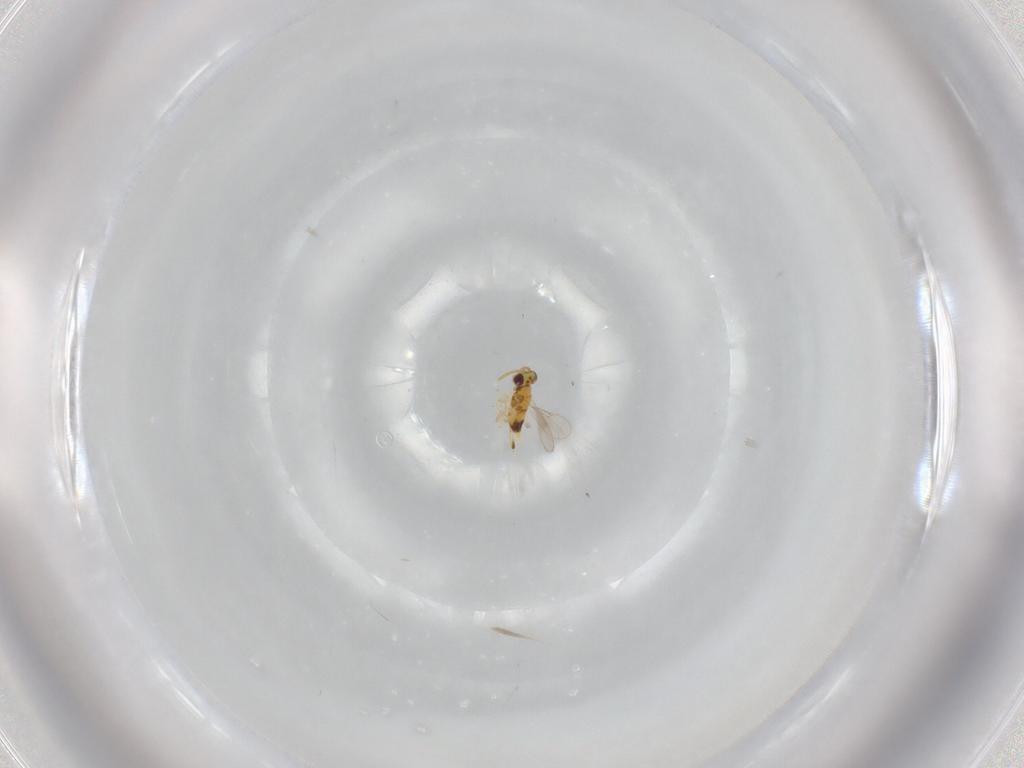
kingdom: Animalia
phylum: Arthropoda
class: Insecta
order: Hymenoptera
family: Aphelinidae
